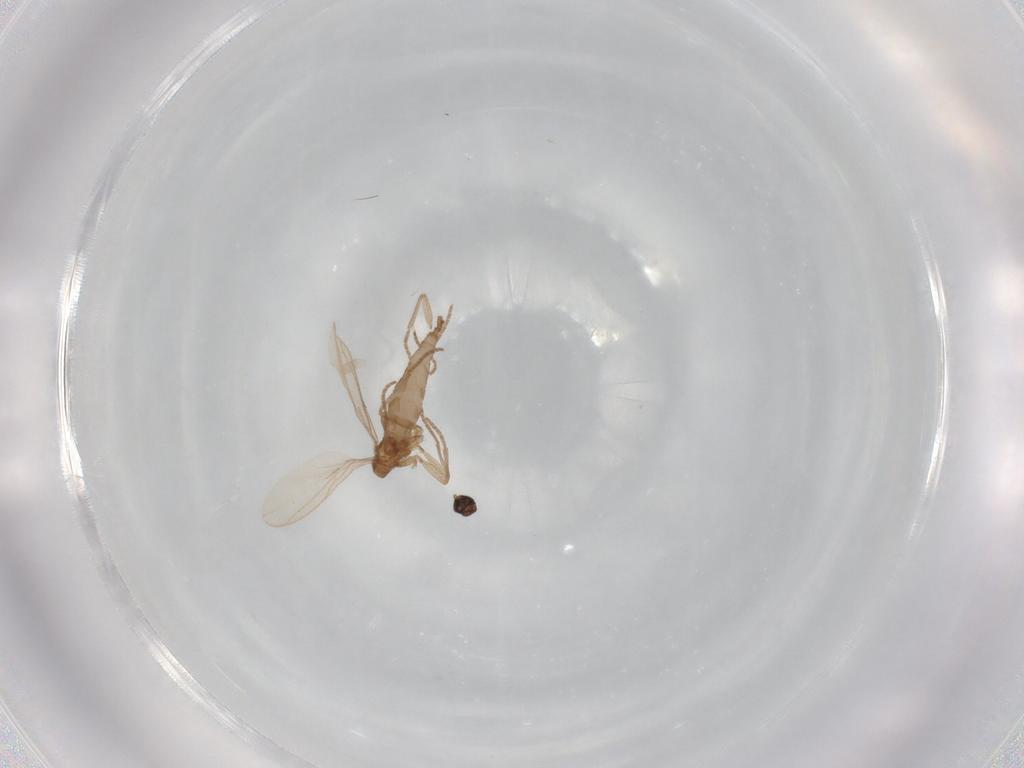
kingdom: Animalia
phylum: Arthropoda
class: Insecta
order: Diptera
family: Sciaridae
